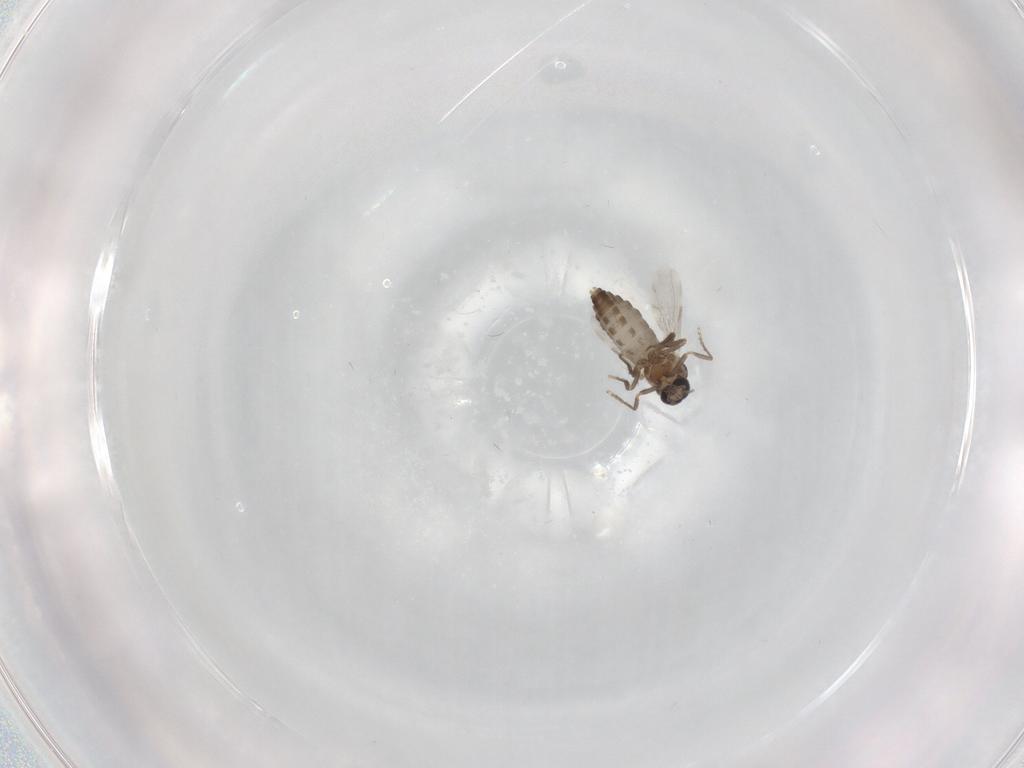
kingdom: Animalia
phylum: Arthropoda
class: Insecta
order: Diptera
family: Ceratopogonidae
